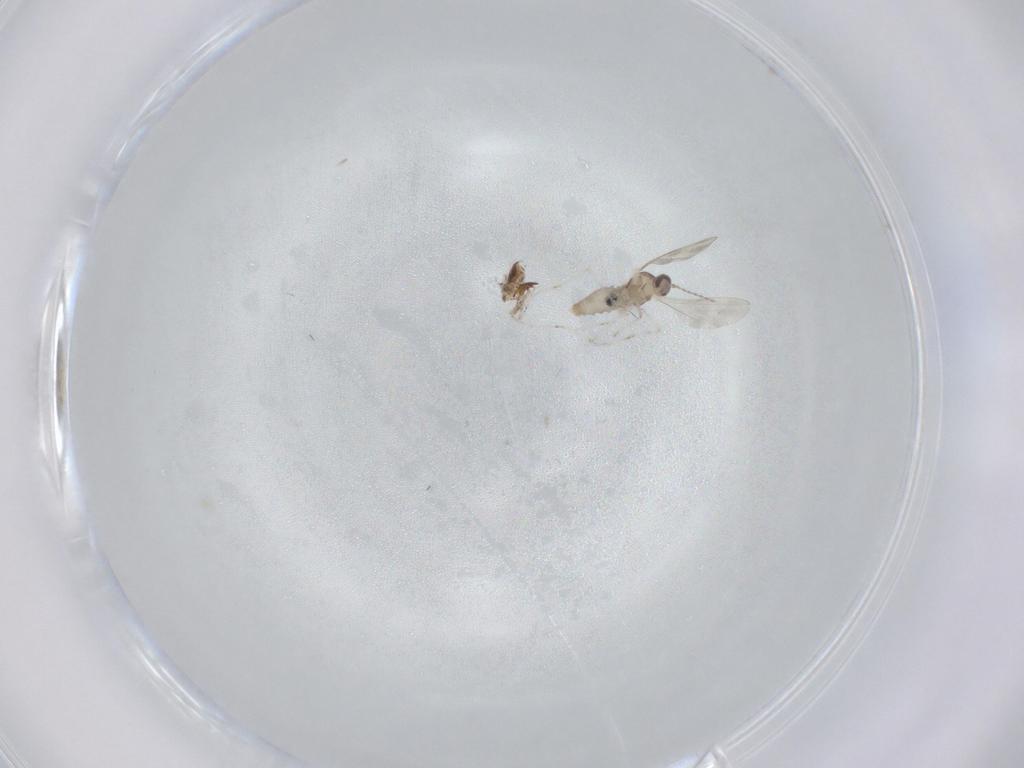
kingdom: Animalia
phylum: Arthropoda
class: Insecta
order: Diptera
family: Cecidomyiidae
